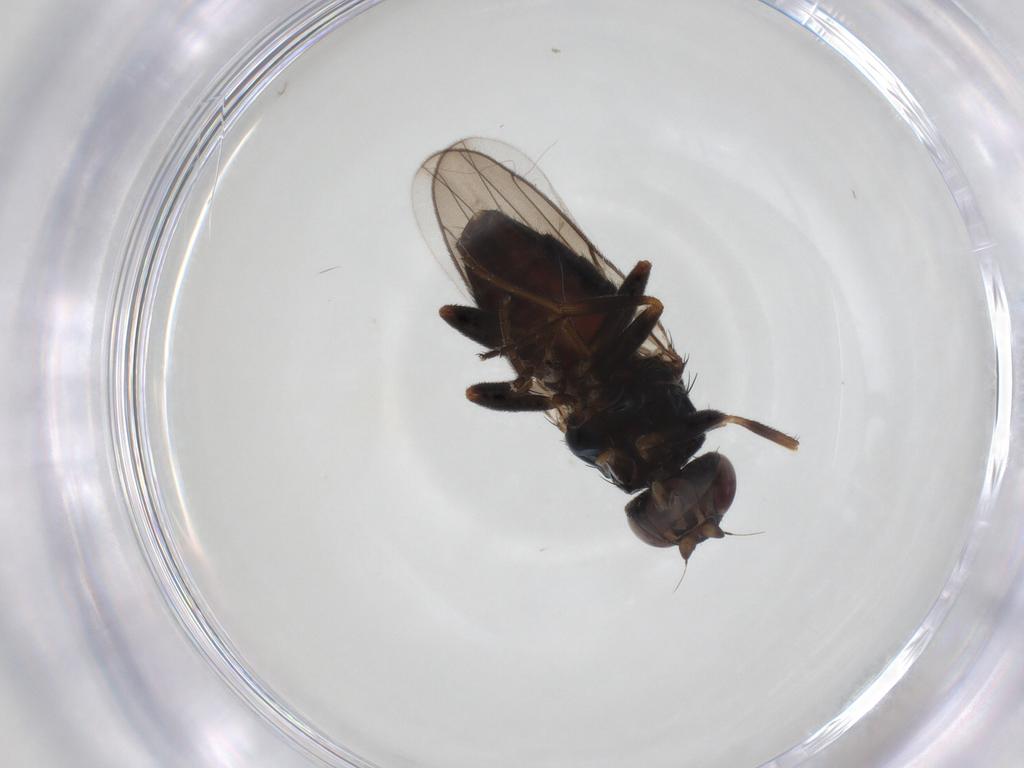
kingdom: Animalia
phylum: Arthropoda
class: Insecta
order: Diptera
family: Chloropidae
